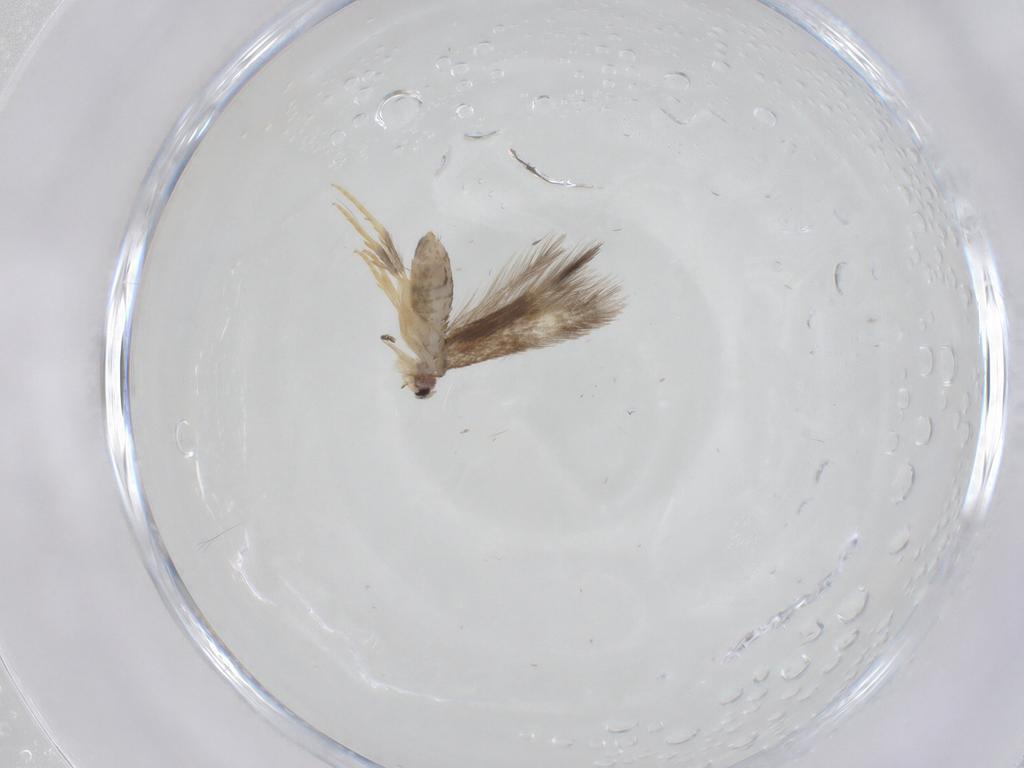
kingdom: Animalia
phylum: Arthropoda
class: Insecta
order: Lepidoptera
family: Nepticulidae
